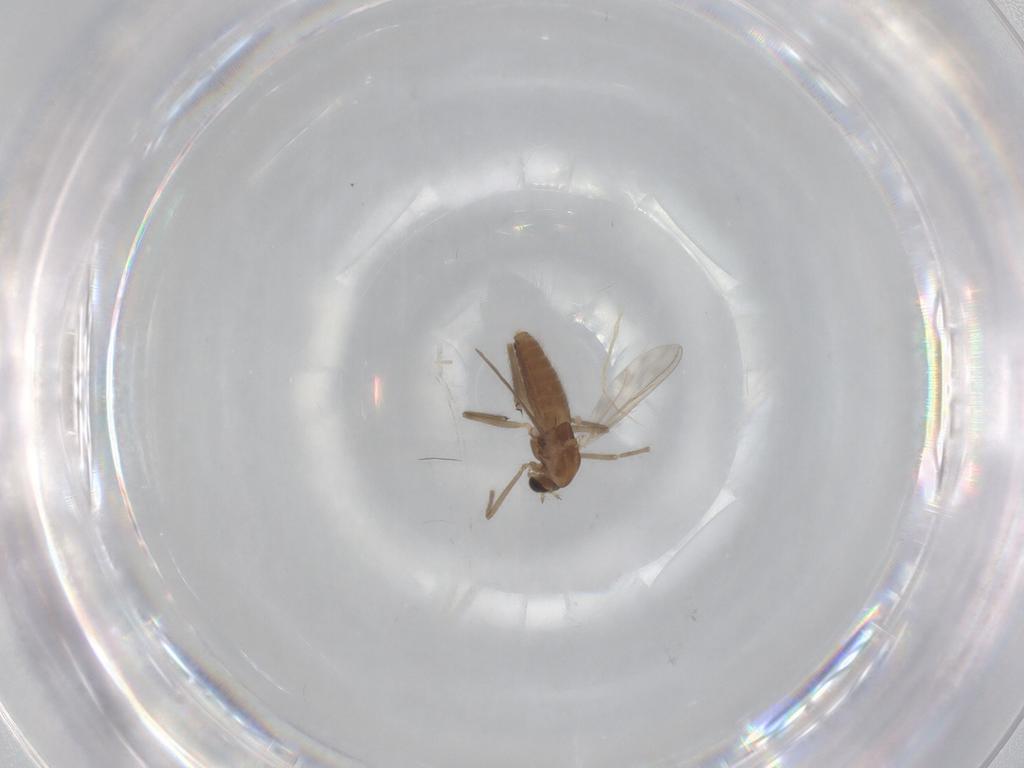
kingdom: Animalia
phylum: Arthropoda
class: Insecta
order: Diptera
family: Chironomidae
